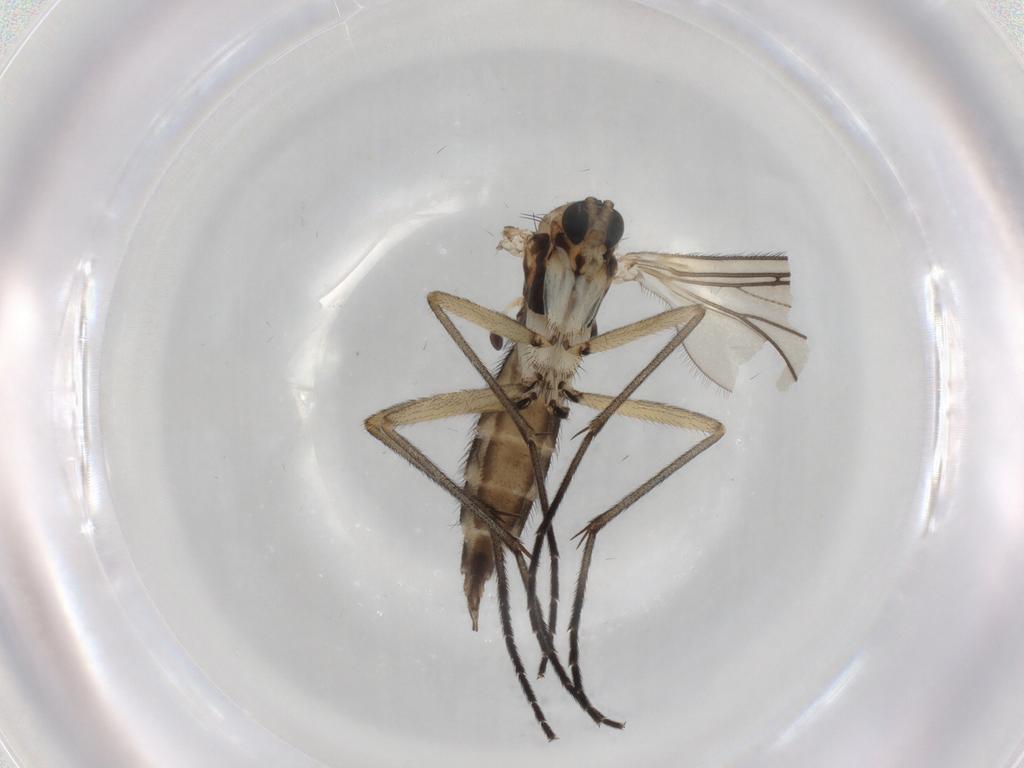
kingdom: Animalia
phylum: Arthropoda
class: Insecta
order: Diptera
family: Sciaridae
